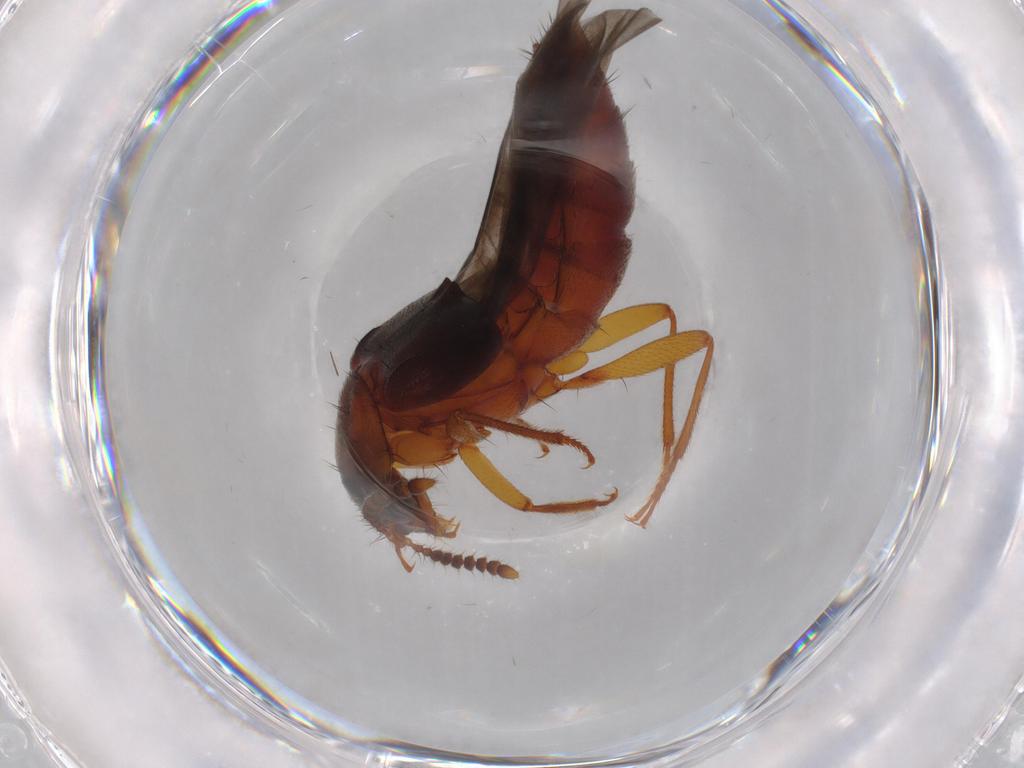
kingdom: Animalia
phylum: Arthropoda
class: Insecta
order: Coleoptera
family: Staphylinidae
